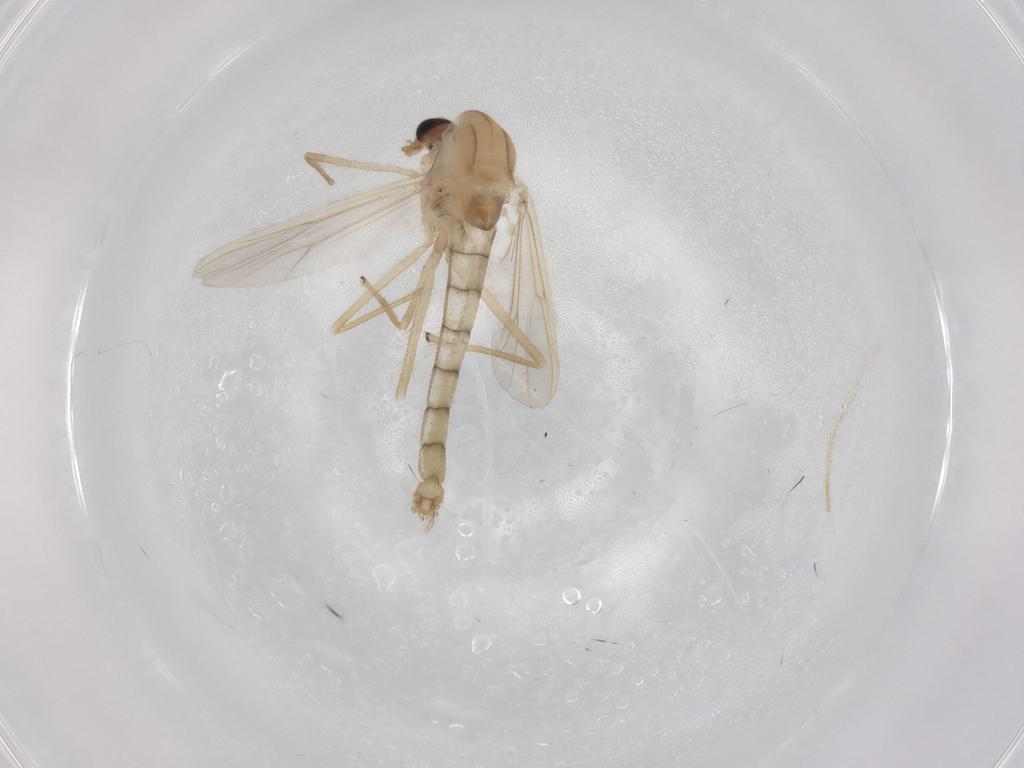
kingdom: Animalia
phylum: Arthropoda
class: Insecta
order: Diptera
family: Chironomidae
